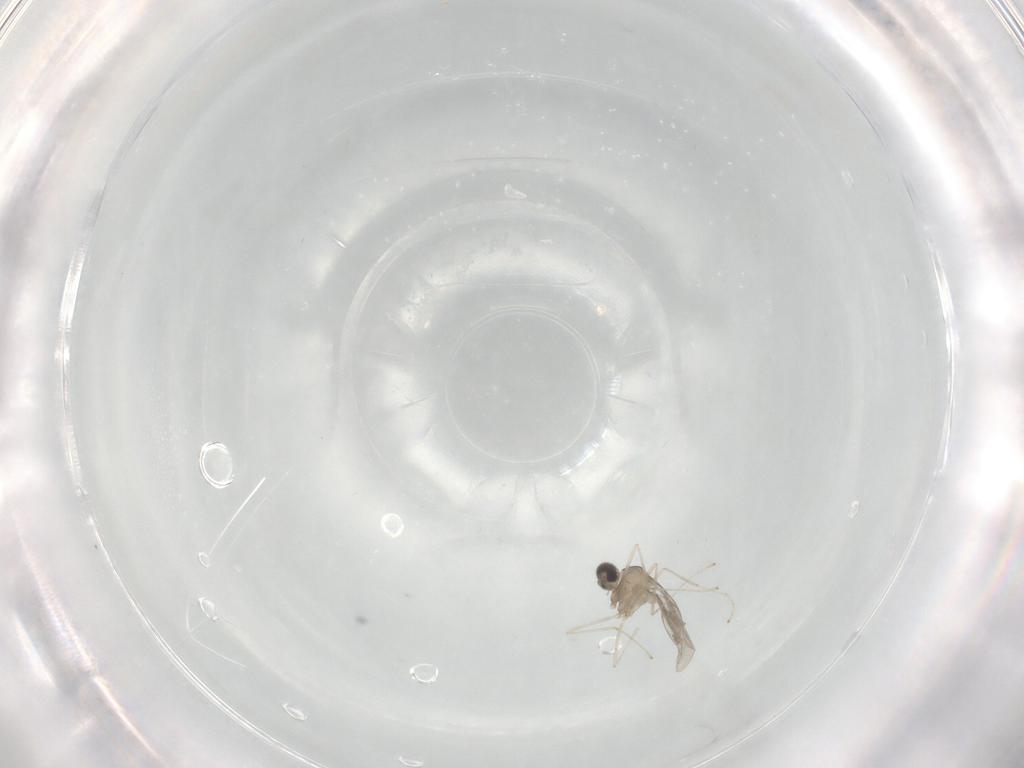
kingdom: Animalia
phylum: Arthropoda
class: Insecta
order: Diptera
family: Cecidomyiidae
